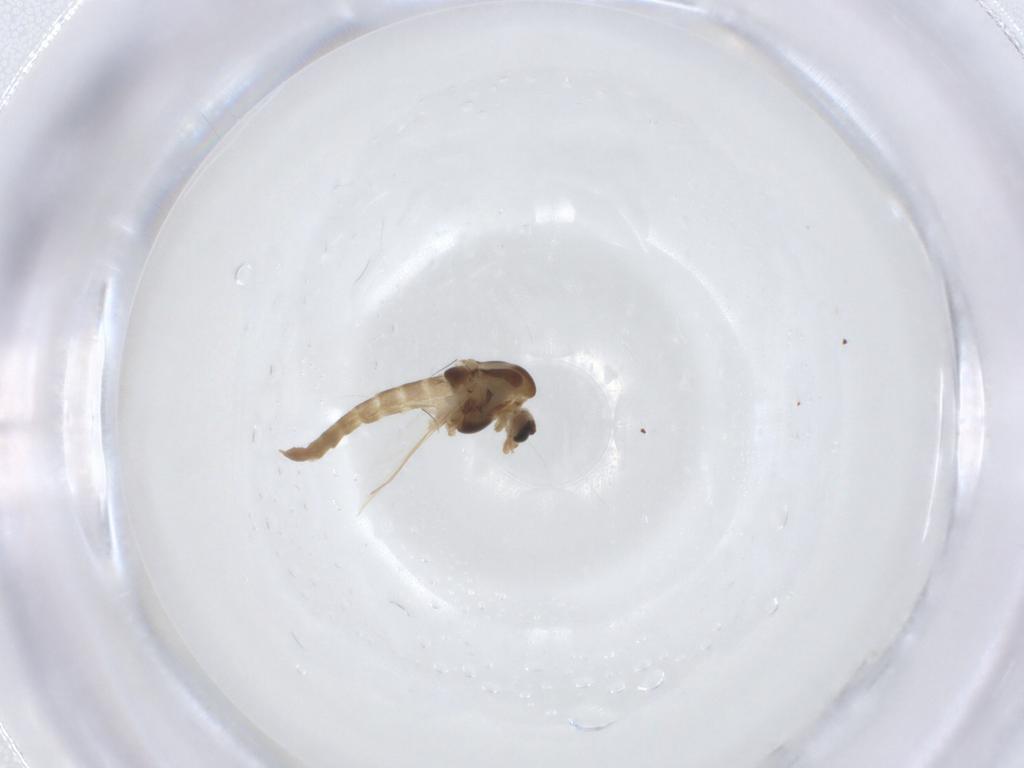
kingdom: Animalia
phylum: Arthropoda
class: Insecta
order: Diptera
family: Chironomidae
